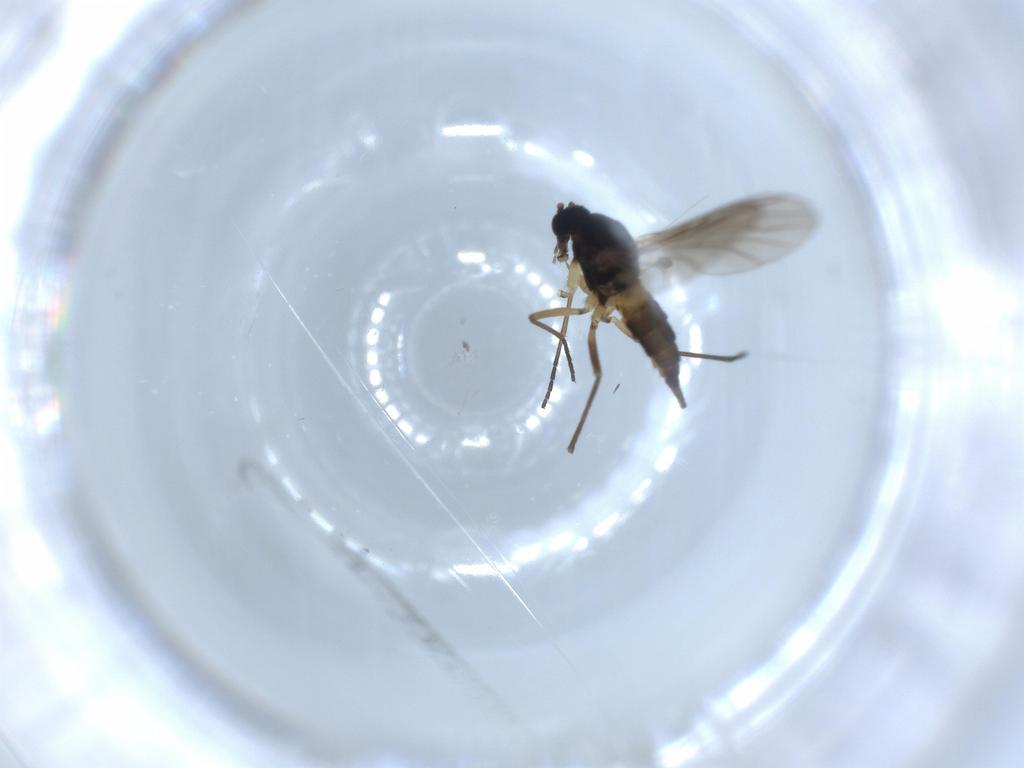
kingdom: Animalia
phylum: Arthropoda
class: Insecta
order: Diptera
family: Sciaridae
